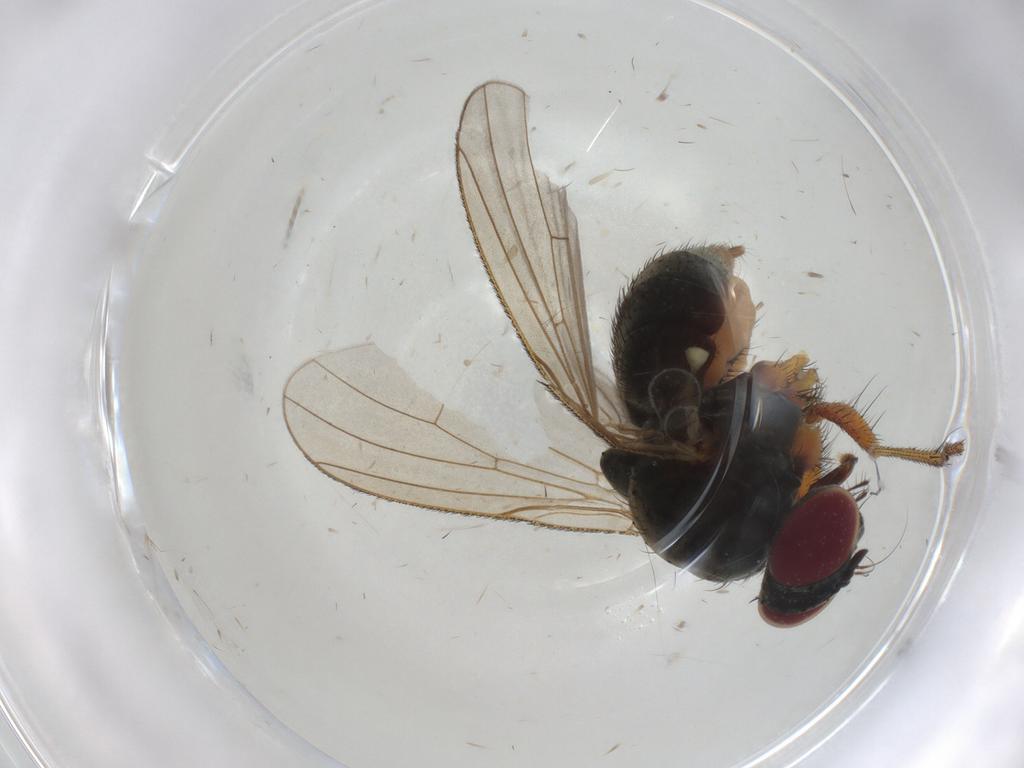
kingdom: Animalia
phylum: Arthropoda
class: Insecta
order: Diptera
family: Muscidae
